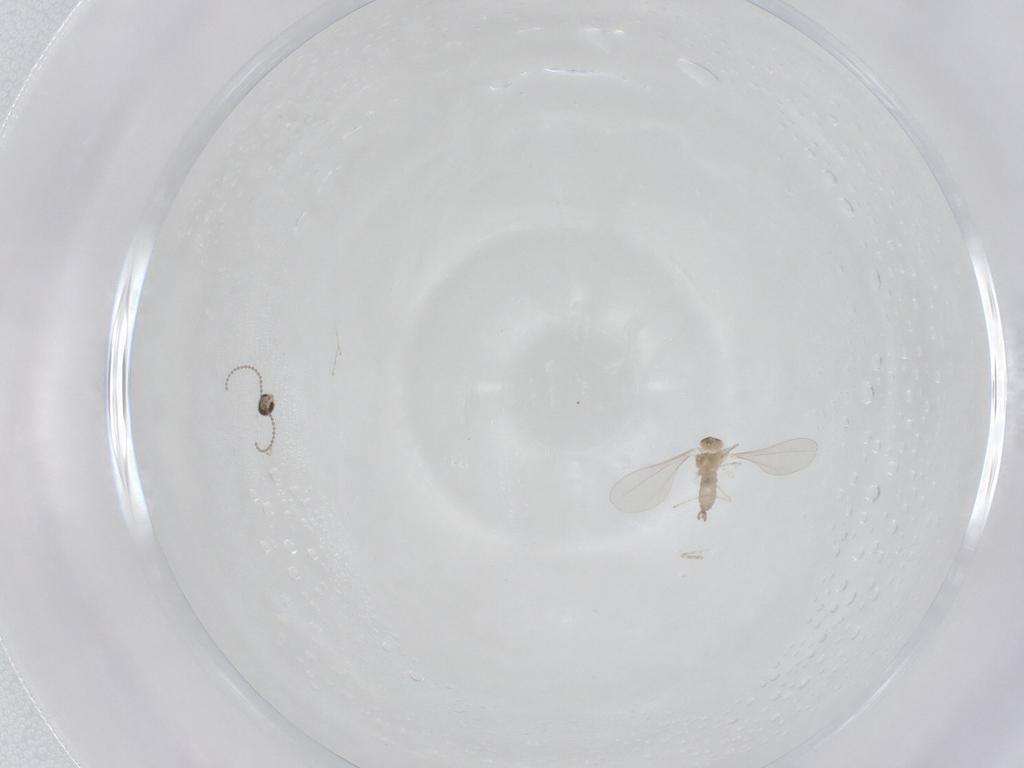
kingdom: Animalia
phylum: Arthropoda
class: Insecta
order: Diptera
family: Cecidomyiidae
